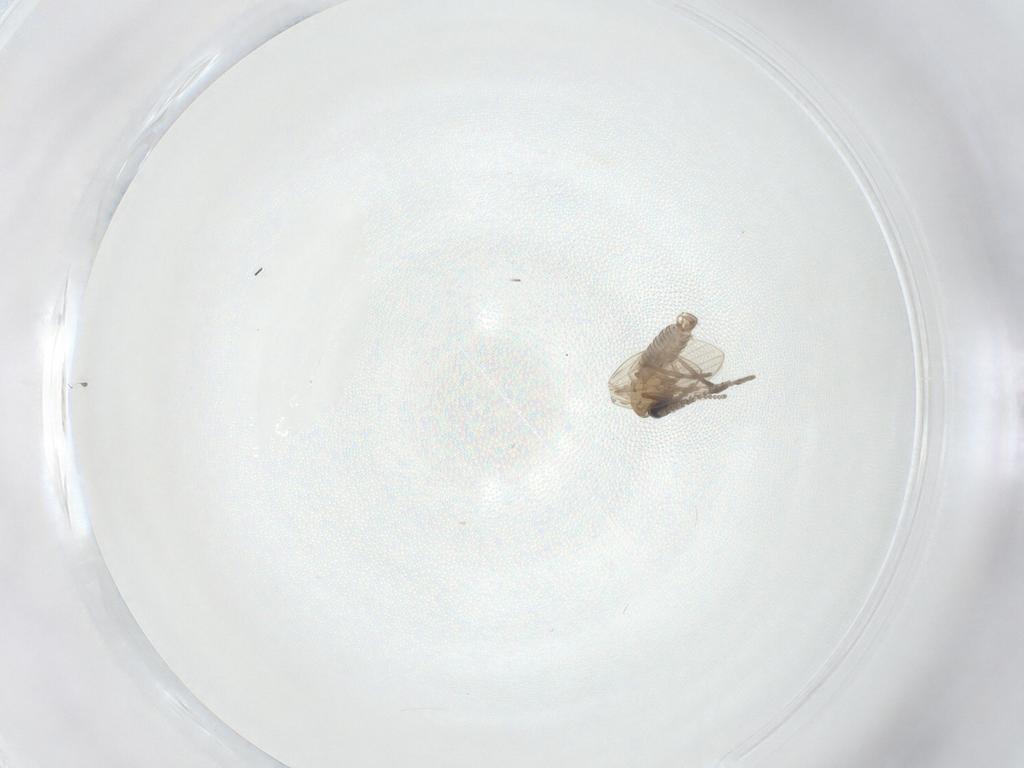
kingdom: Animalia
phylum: Arthropoda
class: Insecta
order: Diptera
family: Psychodidae
